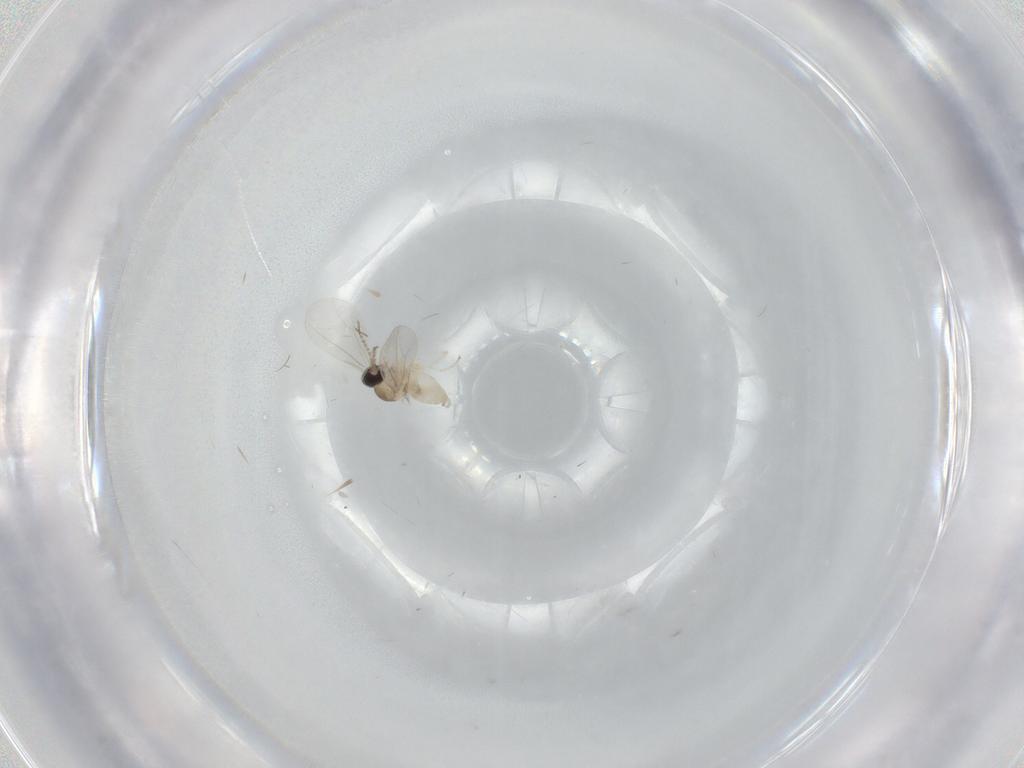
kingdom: Animalia
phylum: Arthropoda
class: Insecta
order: Diptera
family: Cecidomyiidae
